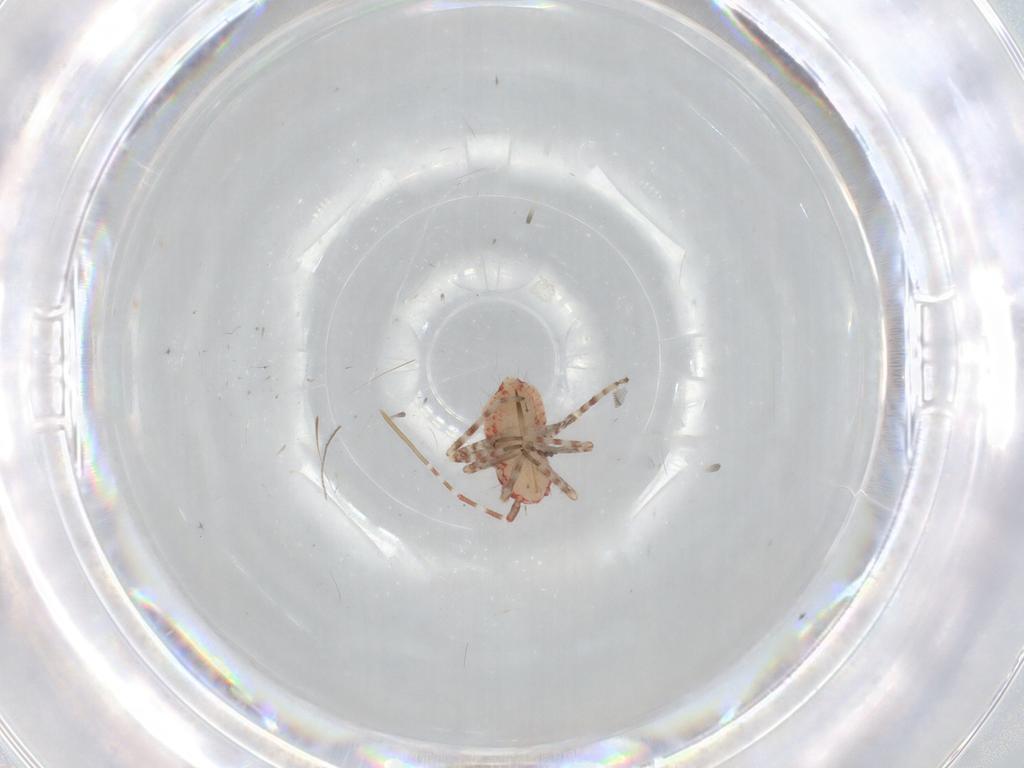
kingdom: Animalia
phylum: Arthropoda
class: Insecta
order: Hemiptera
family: Miridae
